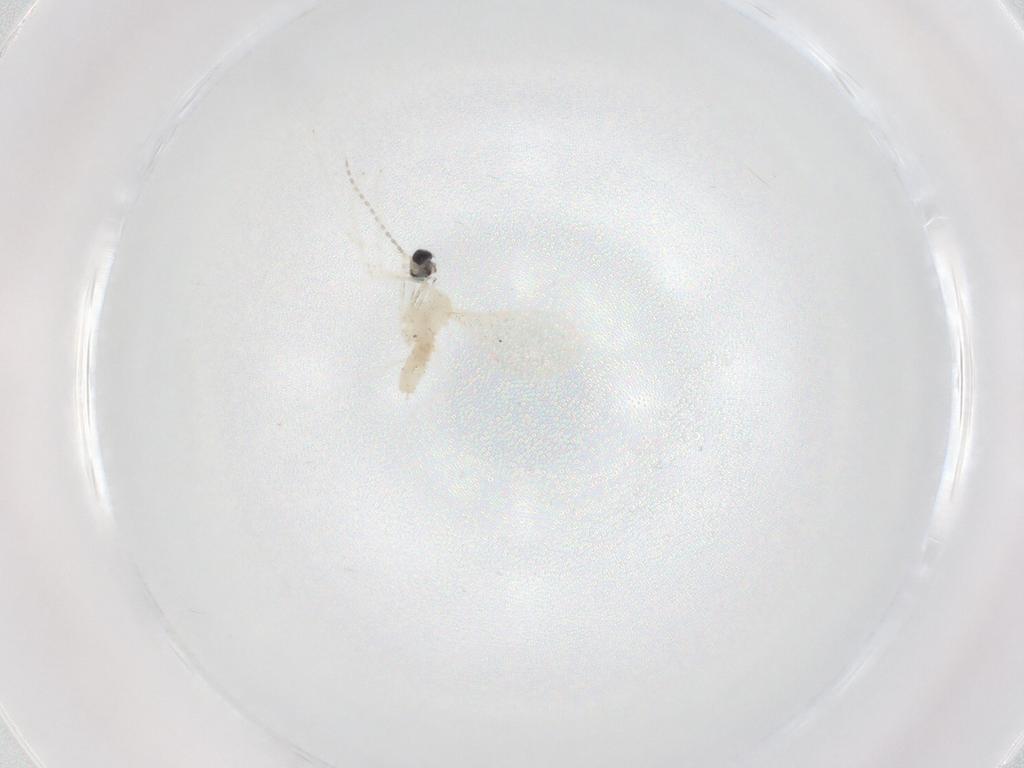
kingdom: Animalia
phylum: Arthropoda
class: Insecta
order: Diptera
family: Cecidomyiidae
